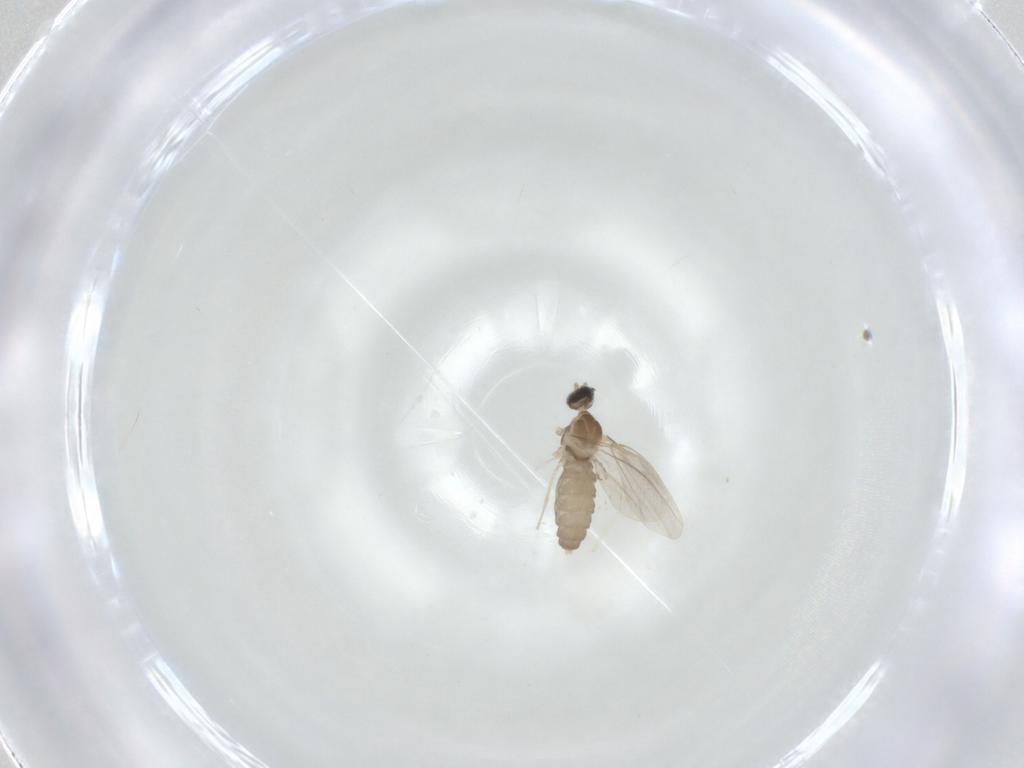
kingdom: Animalia
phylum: Arthropoda
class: Insecta
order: Diptera
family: Cecidomyiidae
